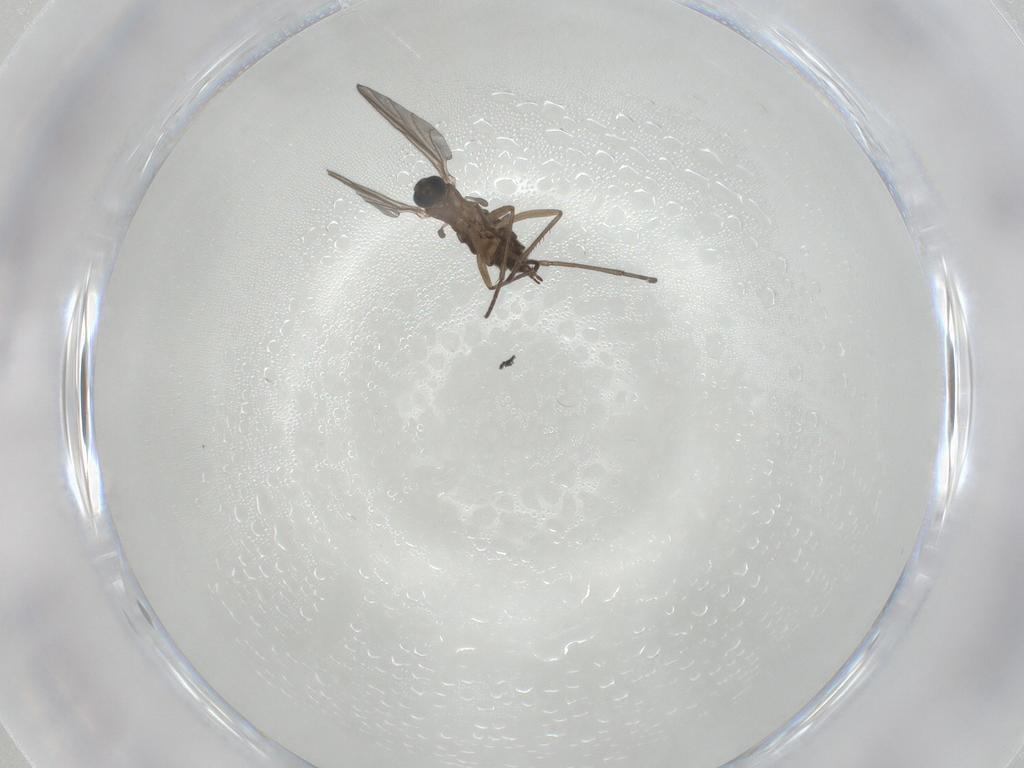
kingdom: Animalia
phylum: Arthropoda
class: Insecta
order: Diptera
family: Sciaridae
